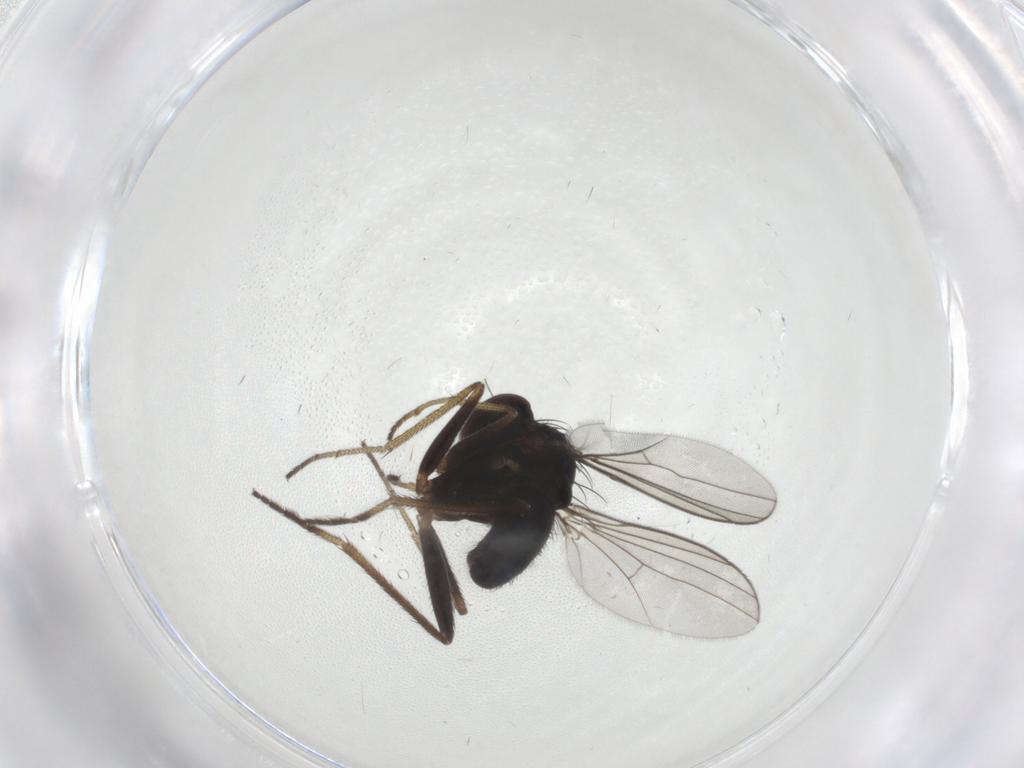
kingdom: Animalia
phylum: Arthropoda
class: Insecta
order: Diptera
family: Dolichopodidae
